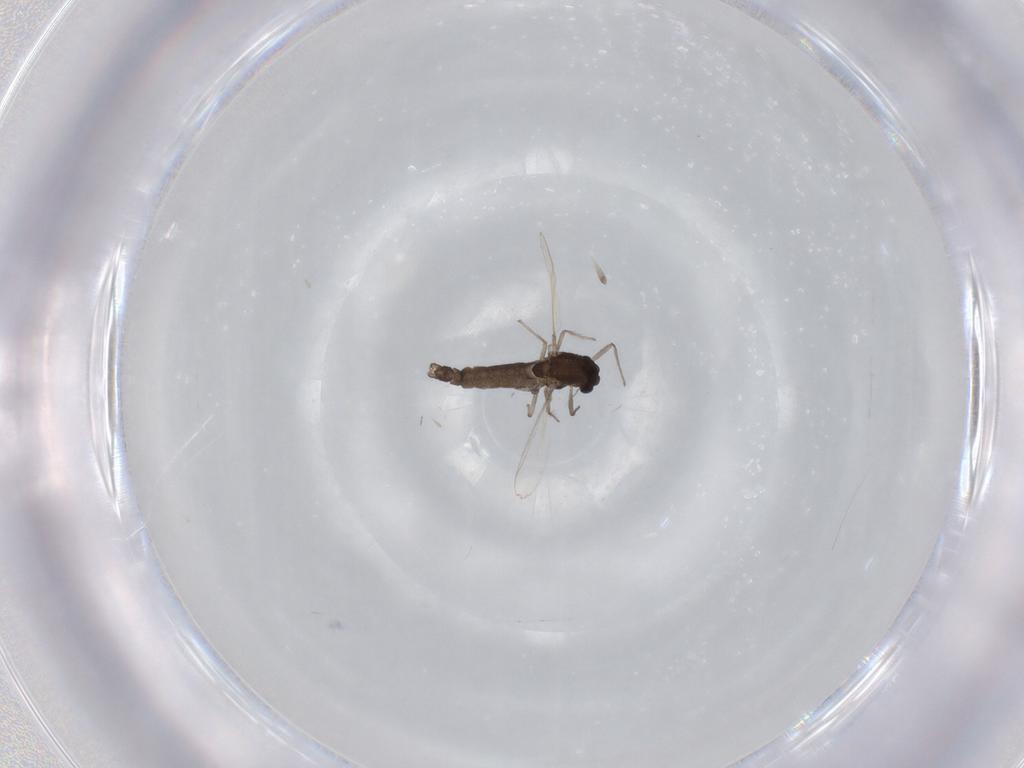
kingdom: Animalia
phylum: Arthropoda
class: Insecta
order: Diptera
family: Chironomidae
